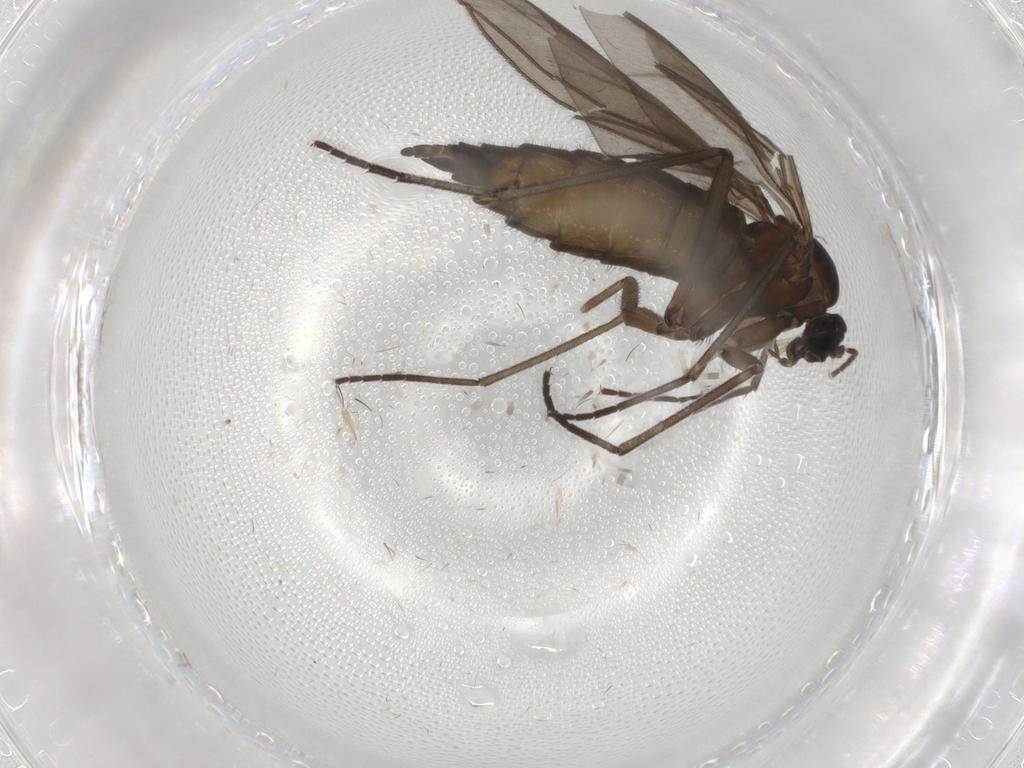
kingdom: Animalia
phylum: Arthropoda
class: Insecta
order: Diptera
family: Sciaridae
